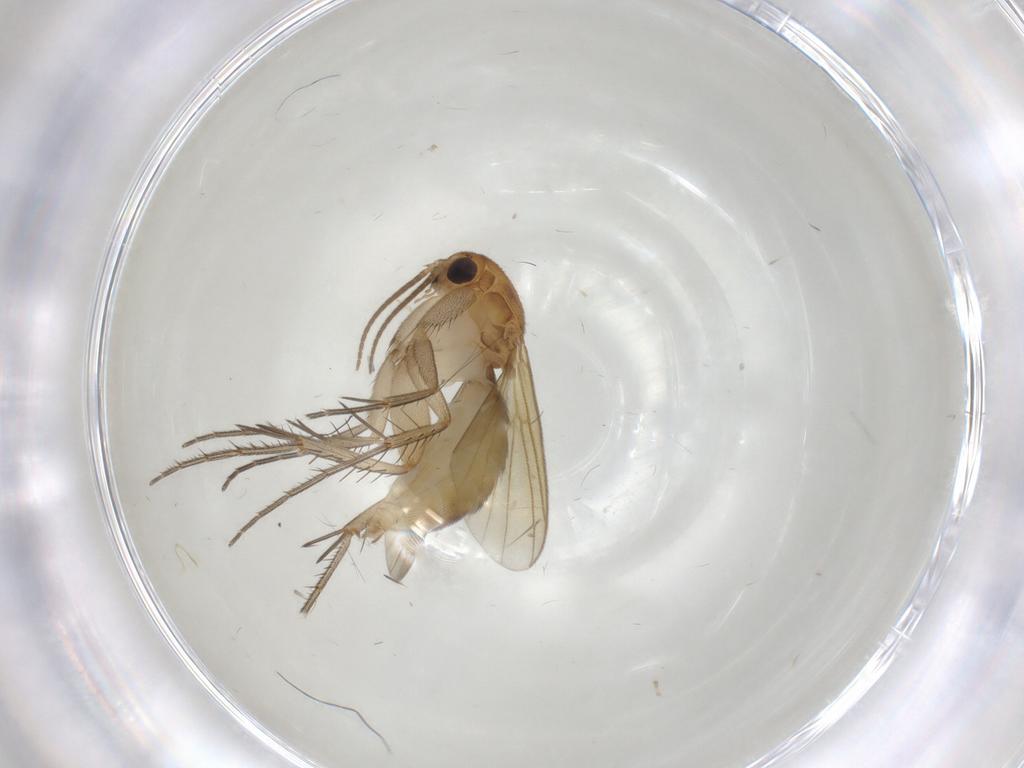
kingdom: Animalia
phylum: Arthropoda
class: Insecta
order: Diptera
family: Mycetophilidae
